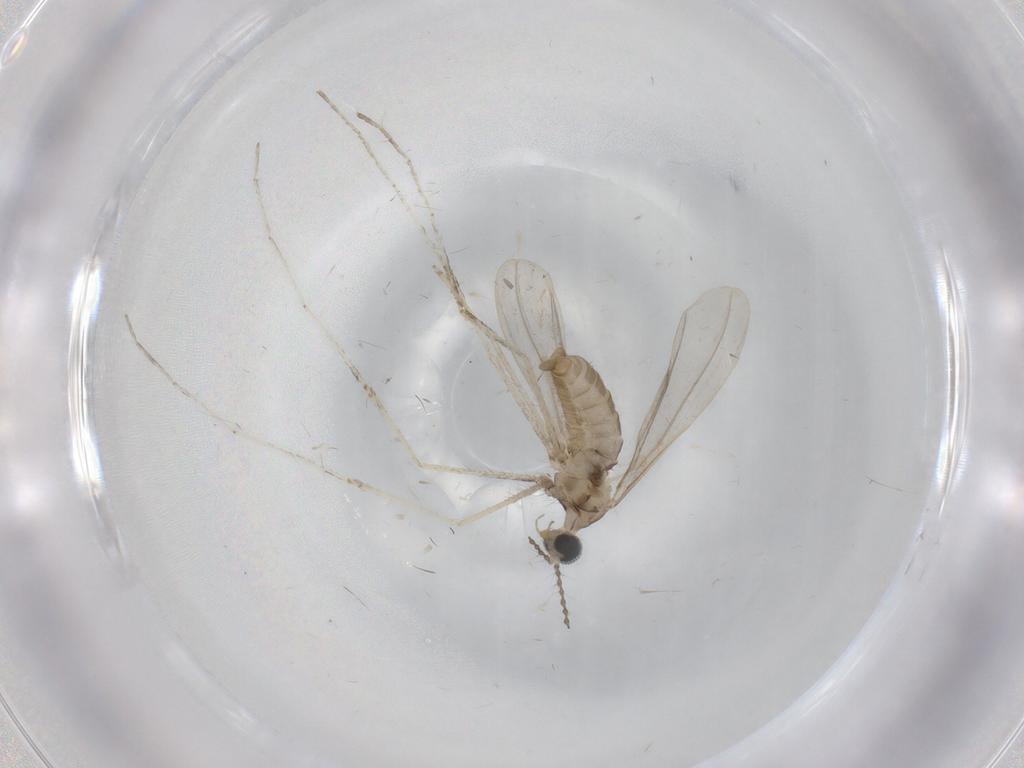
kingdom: Animalia
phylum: Arthropoda
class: Insecta
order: Diptera
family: Cecidomyiidae
